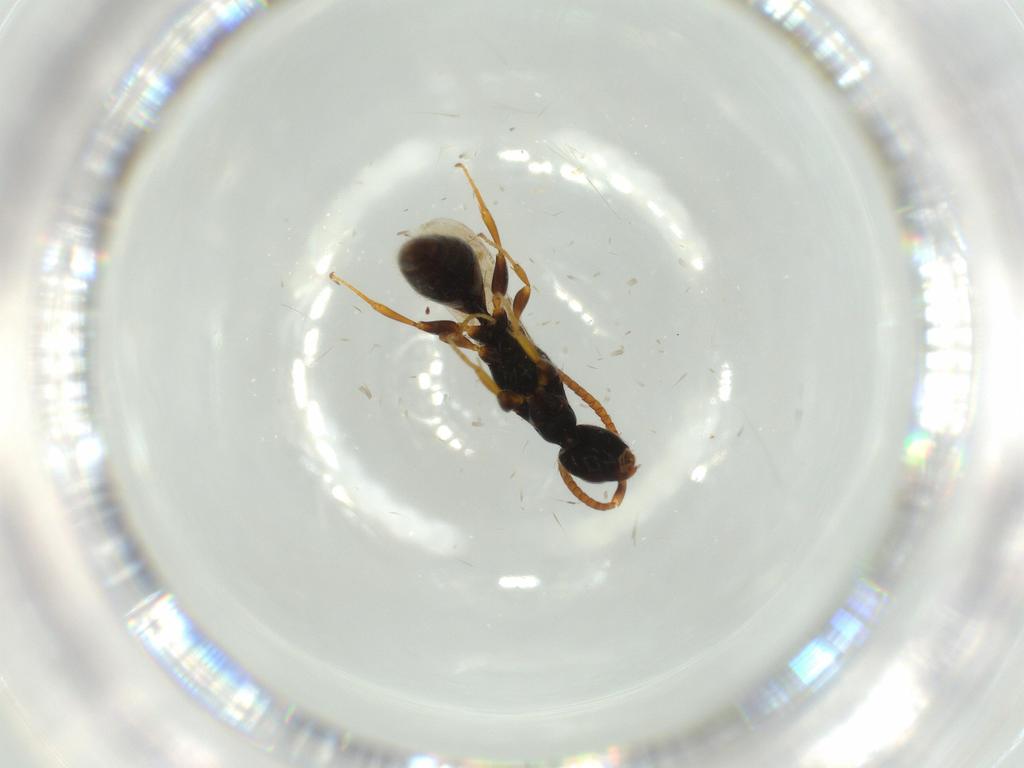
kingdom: Animalia
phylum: Arthropoda
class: Insecta
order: Hymenoptera
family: Bethylidae
